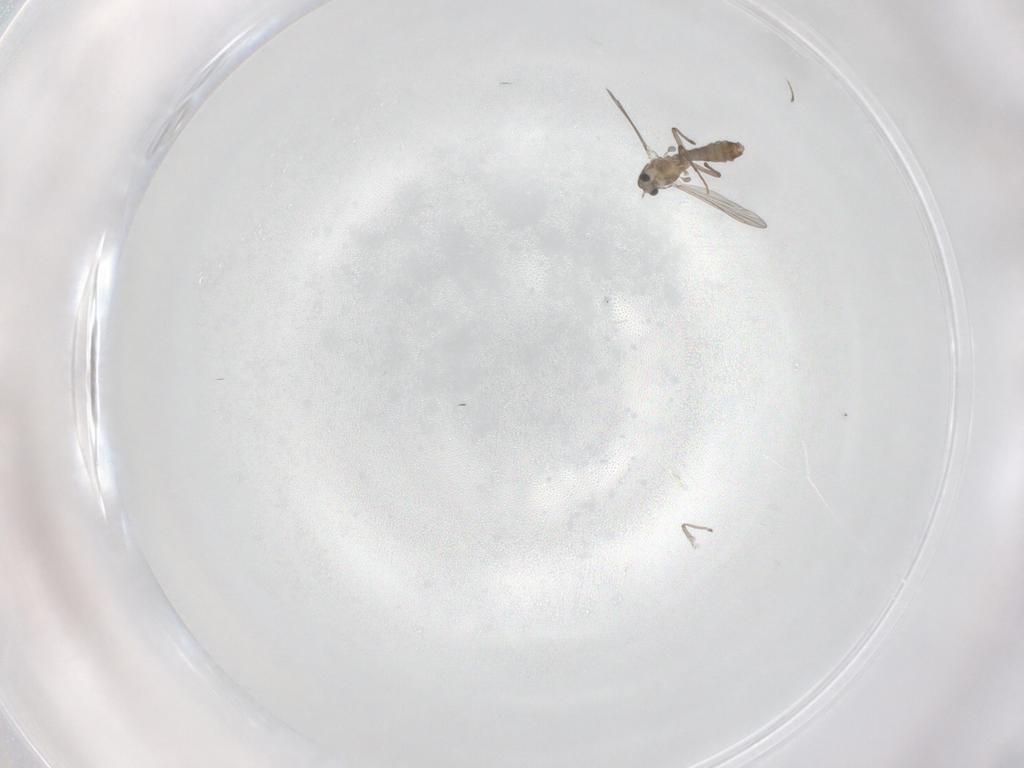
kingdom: Animalia
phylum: Arthropoda
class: Insecta
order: Diptera
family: Chironomidae
